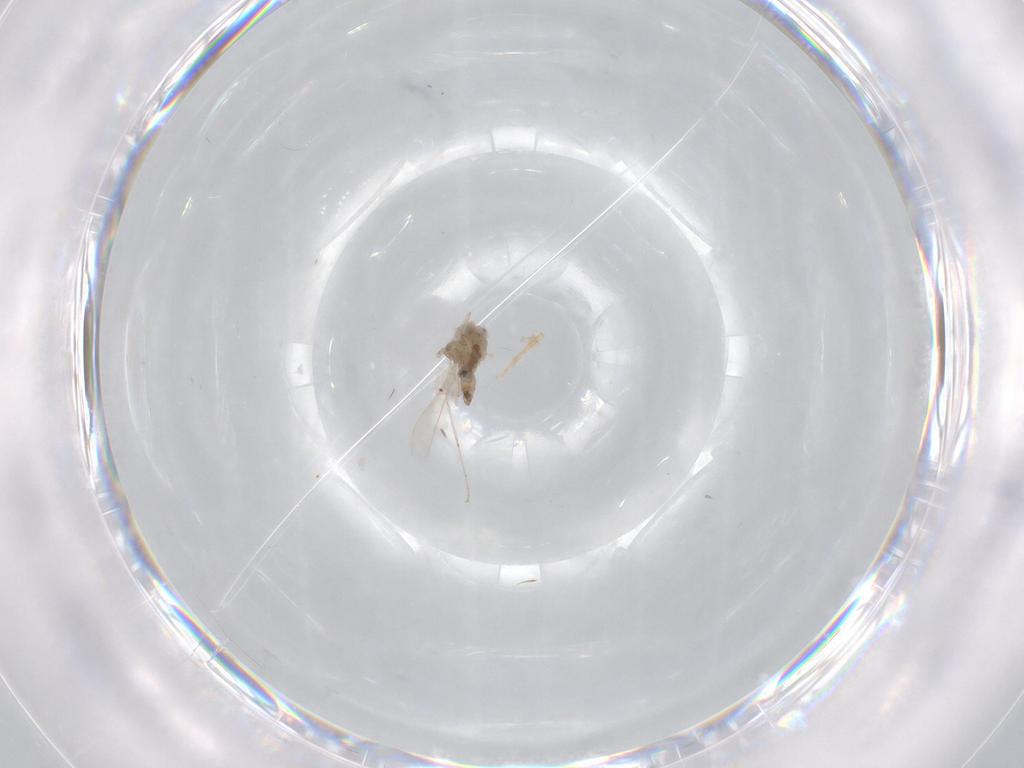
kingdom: Animalia
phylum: Arthropoda
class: Insecta
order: Diptera
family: Cecidomyiidae
